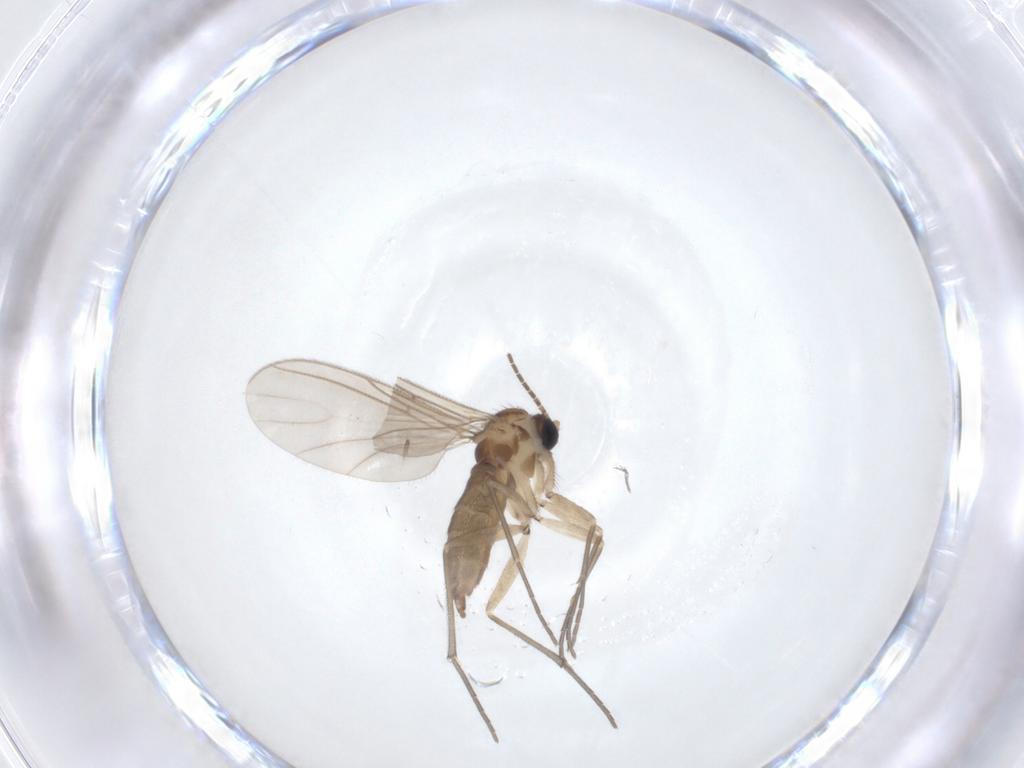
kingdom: Animalia
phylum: Arthropoda
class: Insecta
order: Diptera
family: Sciaridae
